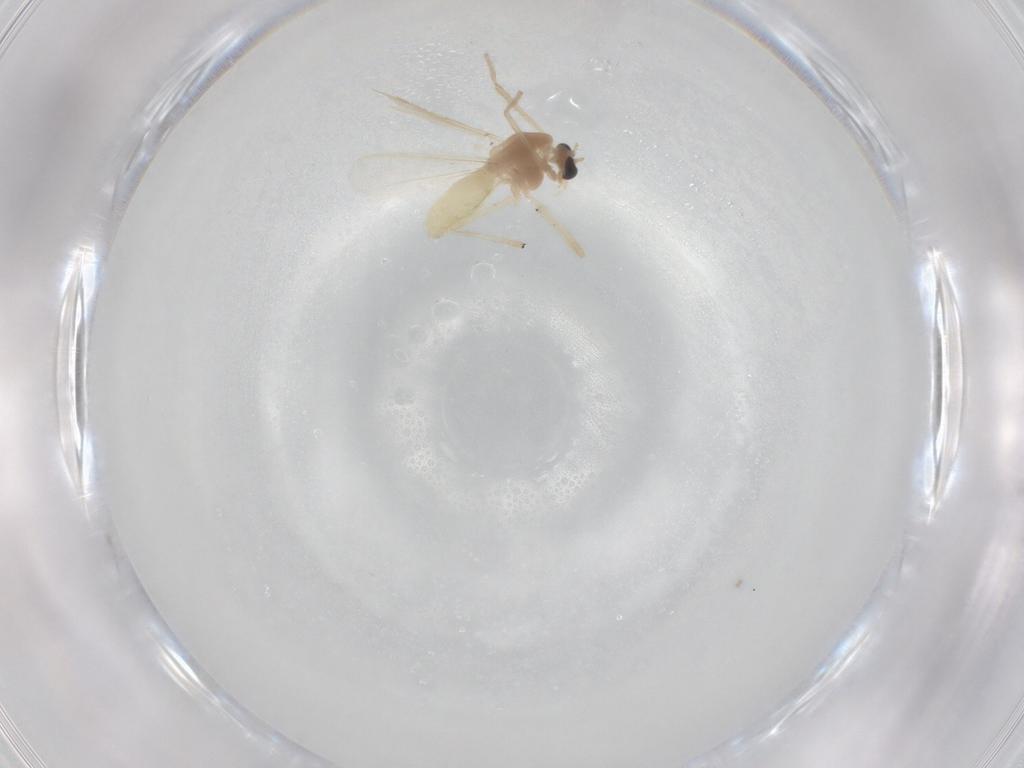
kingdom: Animalia
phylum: Arthropoda
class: Insecta
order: Diptera
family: Chironomidae
